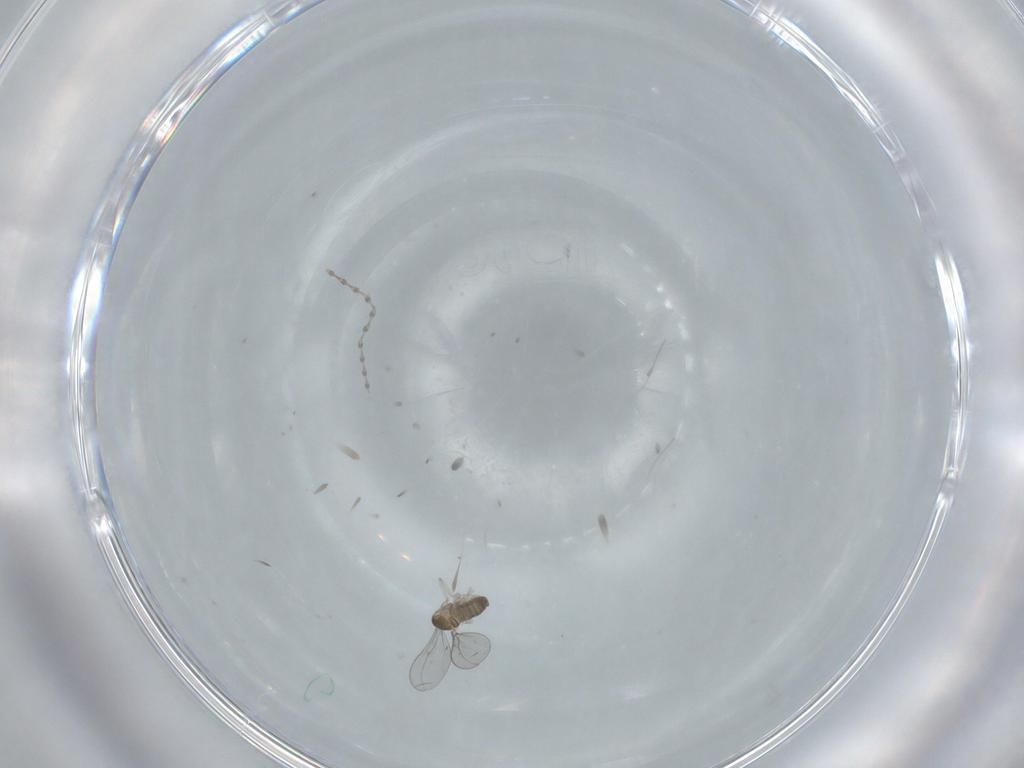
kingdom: Animalia
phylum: Arthropoda
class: Insecta
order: Diptera
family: Cecidomyiidae
